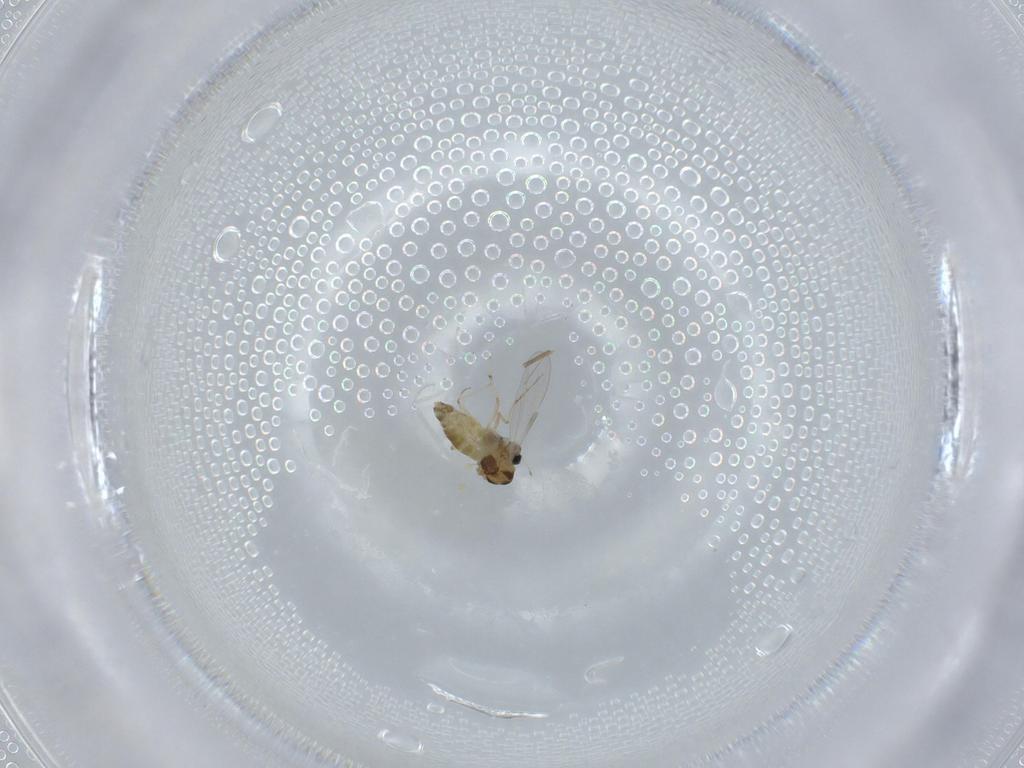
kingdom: Animalia
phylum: Arthropoda
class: Insecta
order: Diptera
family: Chironomidae
